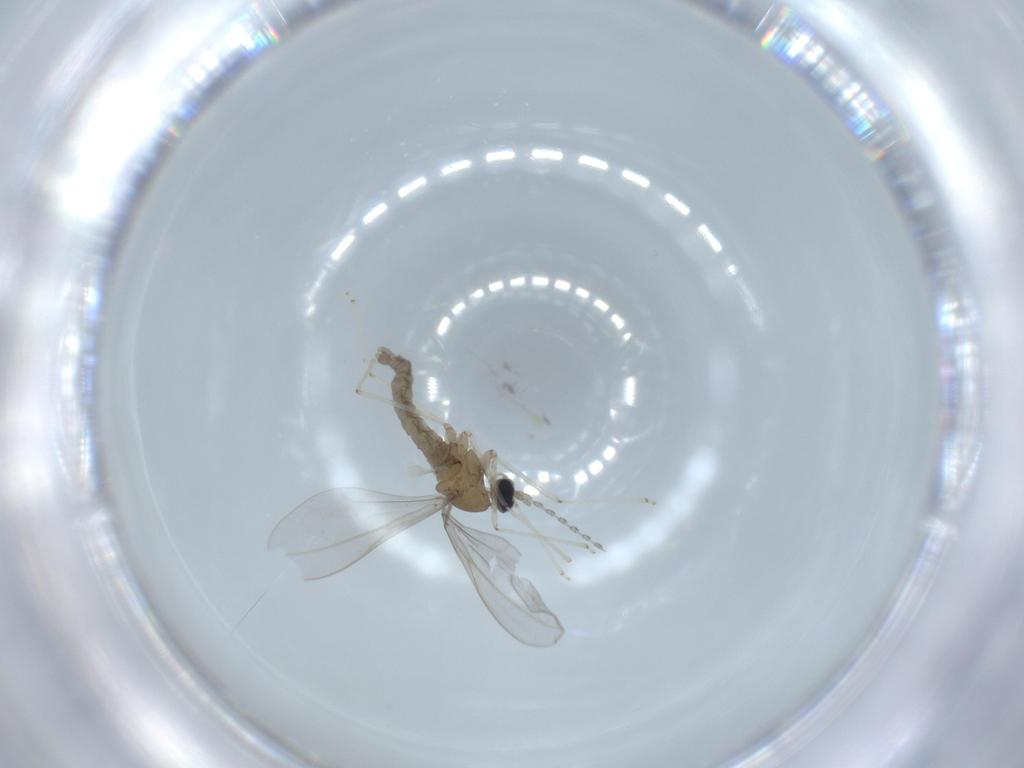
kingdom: Animalia
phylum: Arthropoda
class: Insecta
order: Diptera
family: Cecidomyiidae
